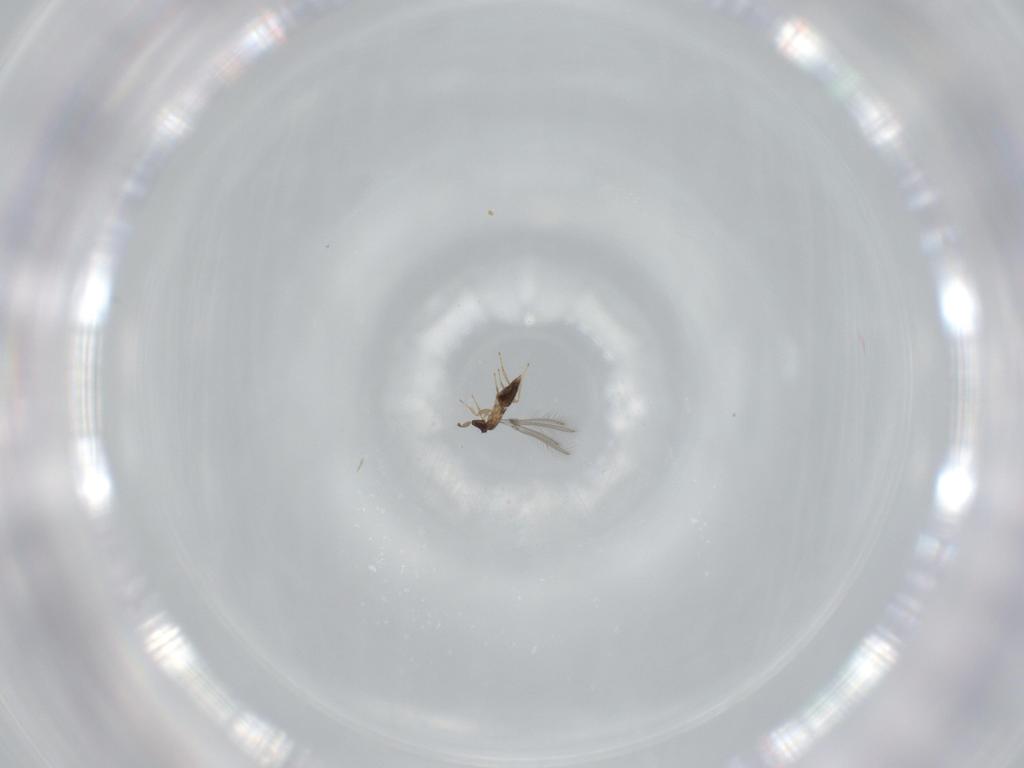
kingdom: Animalia
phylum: Arthropoda
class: Insecta
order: Hymenoptera
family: Mymaridae
